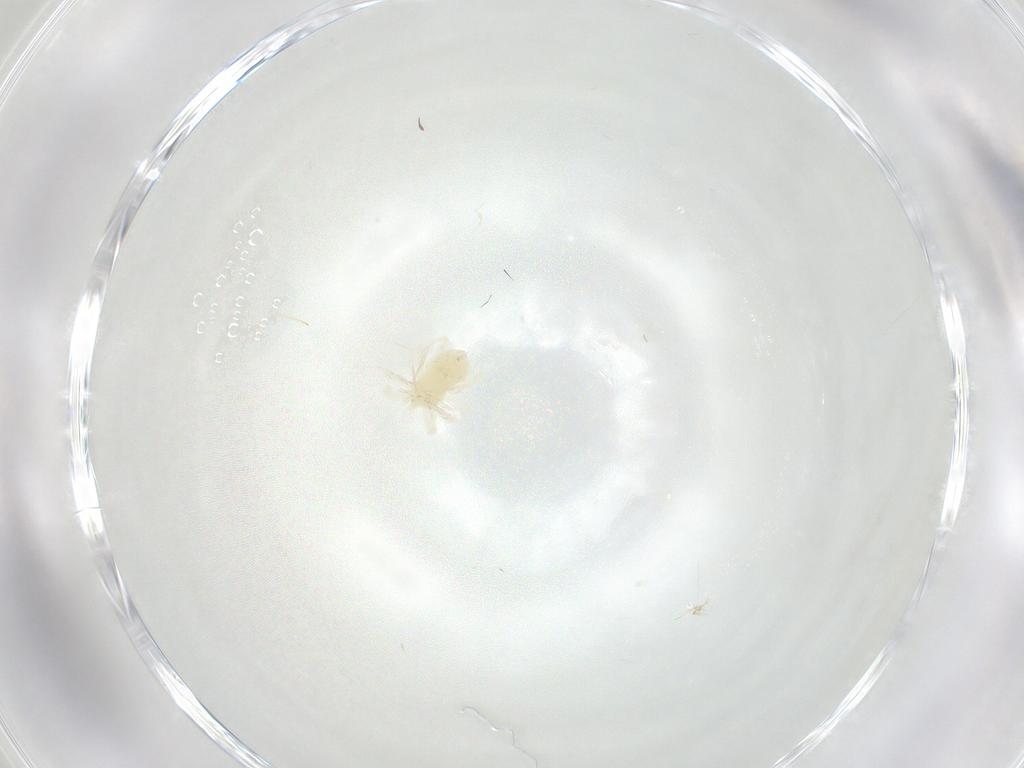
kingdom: Animalia
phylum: Arthropoda
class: Arachnida
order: Trombidiformes
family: Anystidae
